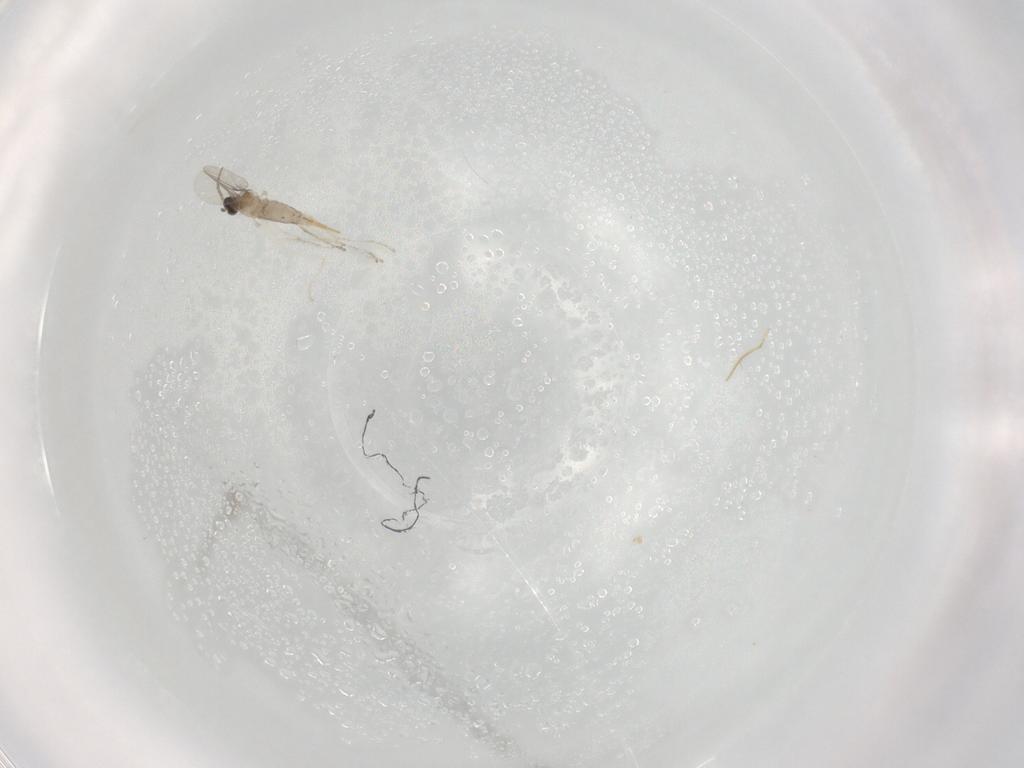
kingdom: Animalia
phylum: Arthropoda
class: Insecta
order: Diptera
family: Cecidomyiidae
